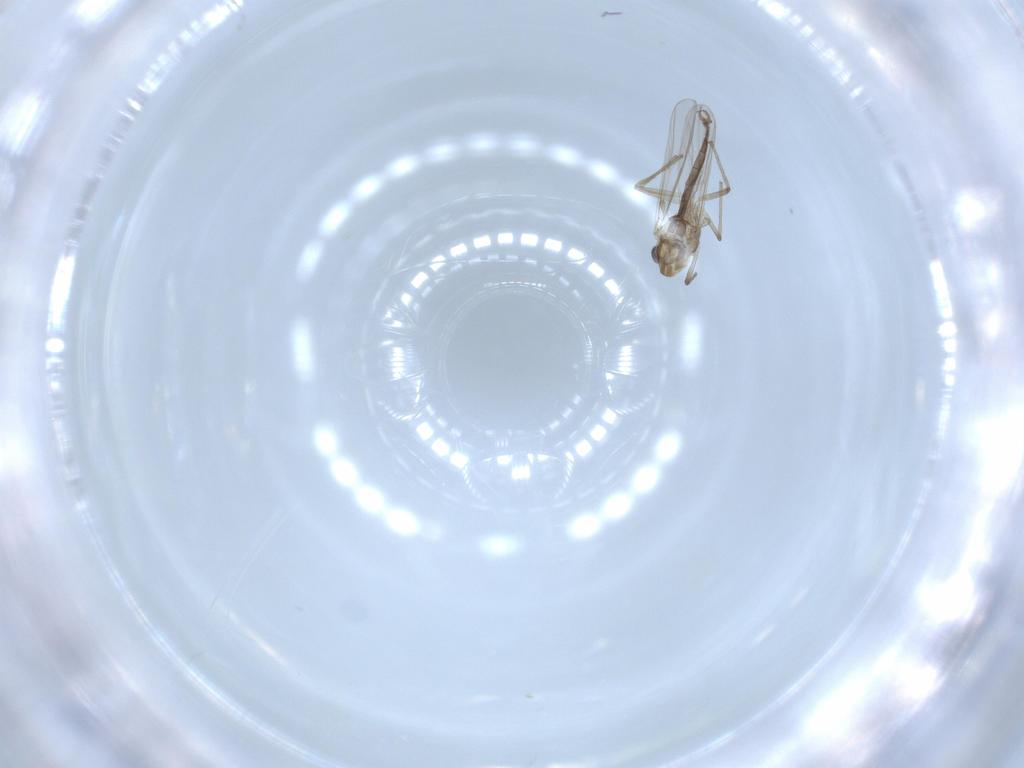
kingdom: Animalia
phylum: Arthropoda
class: Insecta
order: Diptera
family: Chironomidae
